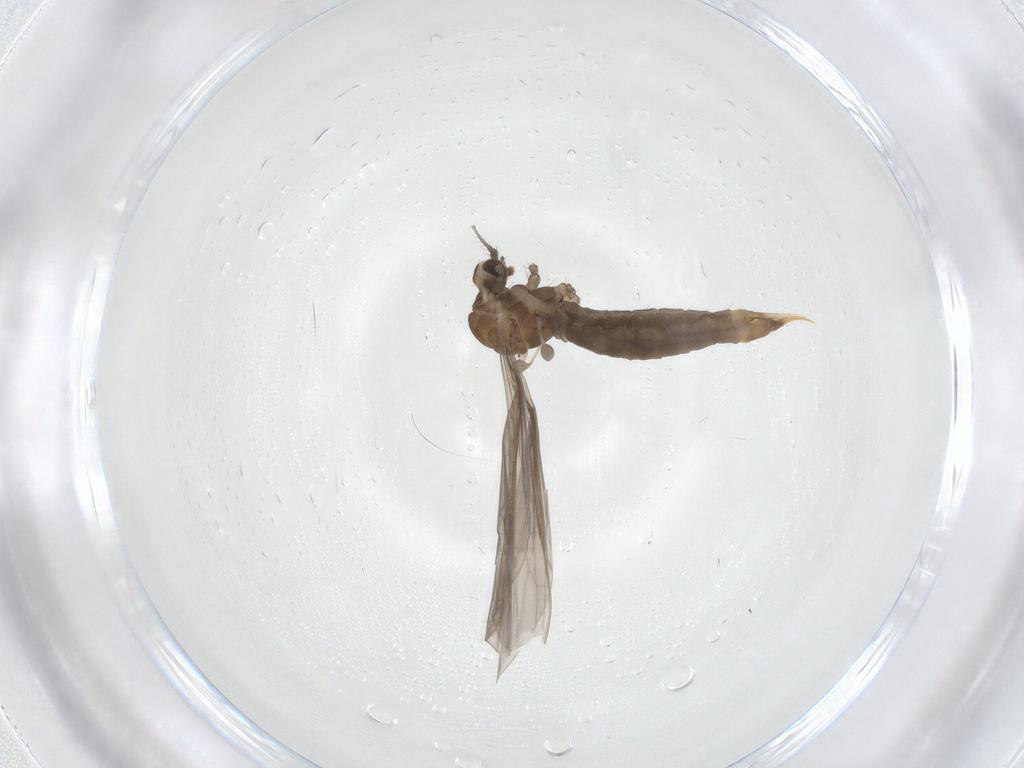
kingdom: Animalia
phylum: Arthropoda
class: Insecta
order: Diptera
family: Limoniidae
